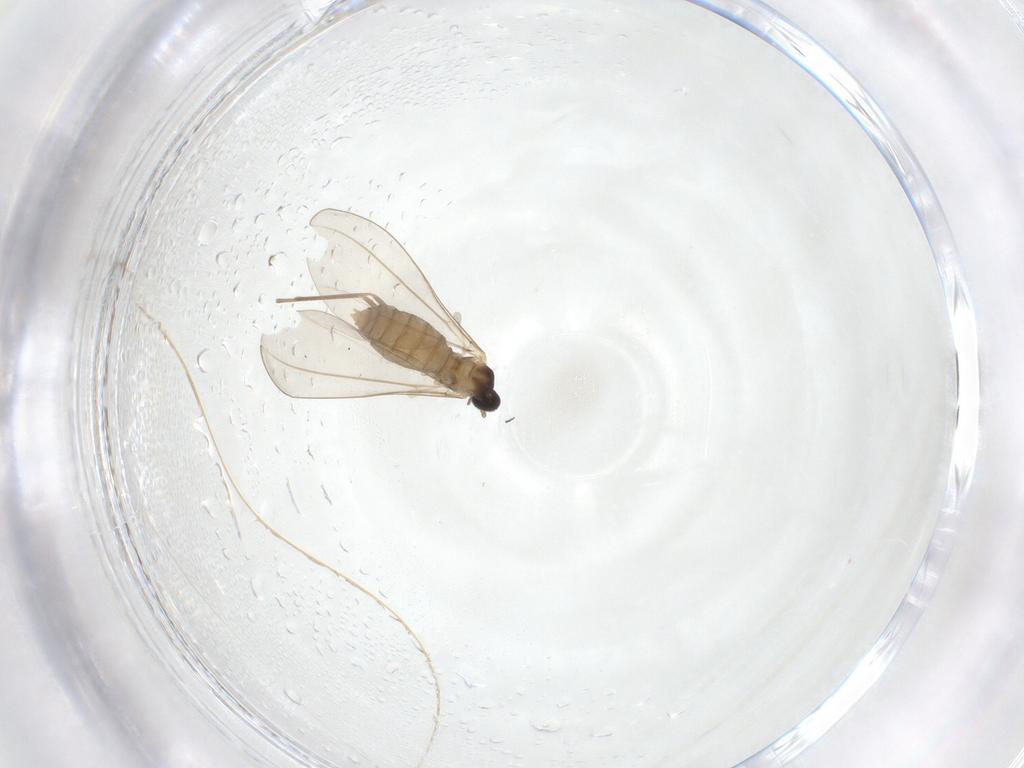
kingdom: Animalia
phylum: Arthropoda
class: Insecta
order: Diptera
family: Cecidomyiidae
